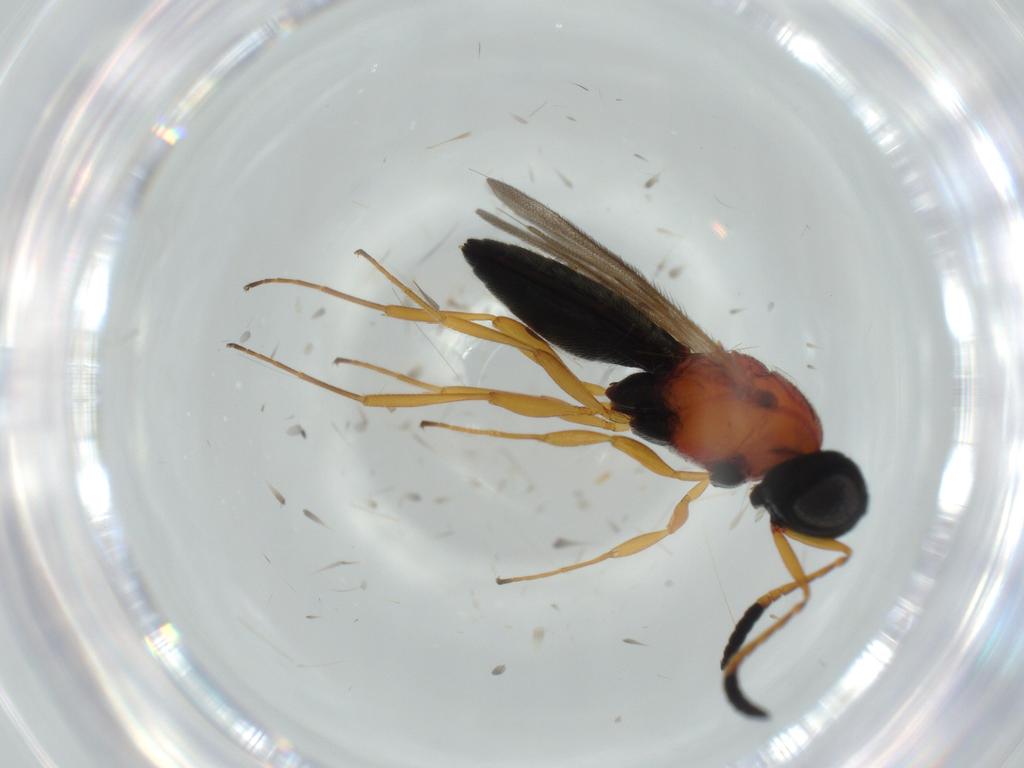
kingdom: Animalia
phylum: Arthropoda
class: Insecta
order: Hymenoptera
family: Scelionidae
